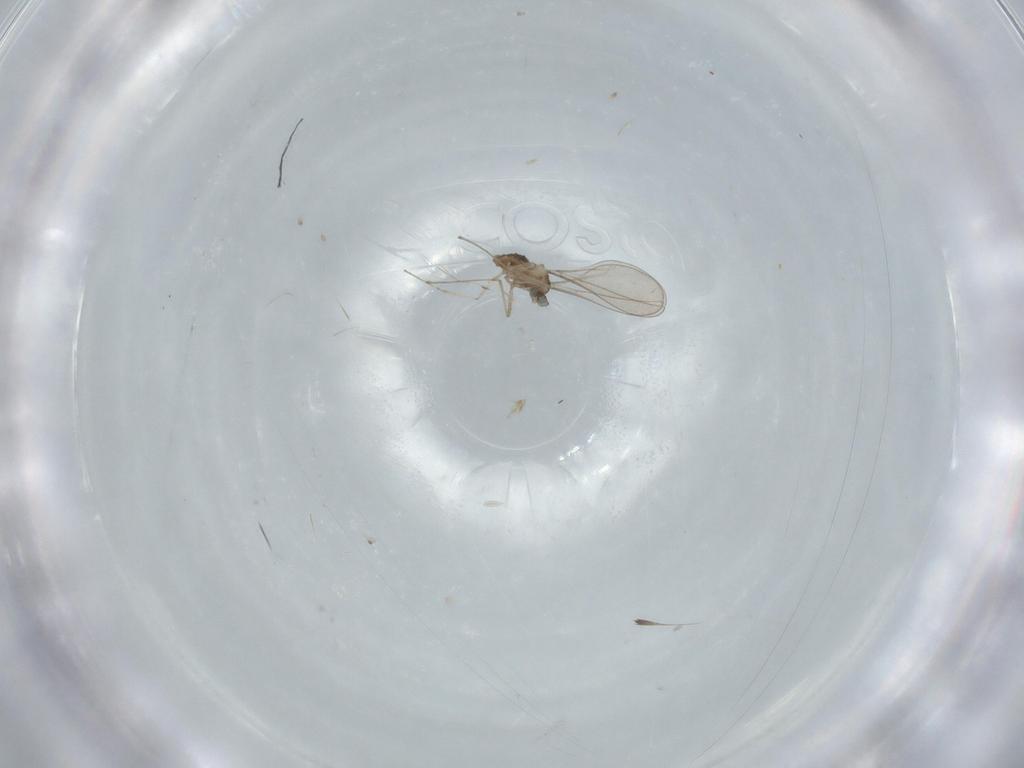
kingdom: Animalia
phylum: Arthropoda
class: Insecta
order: Diptera
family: Cecidomyiidae
